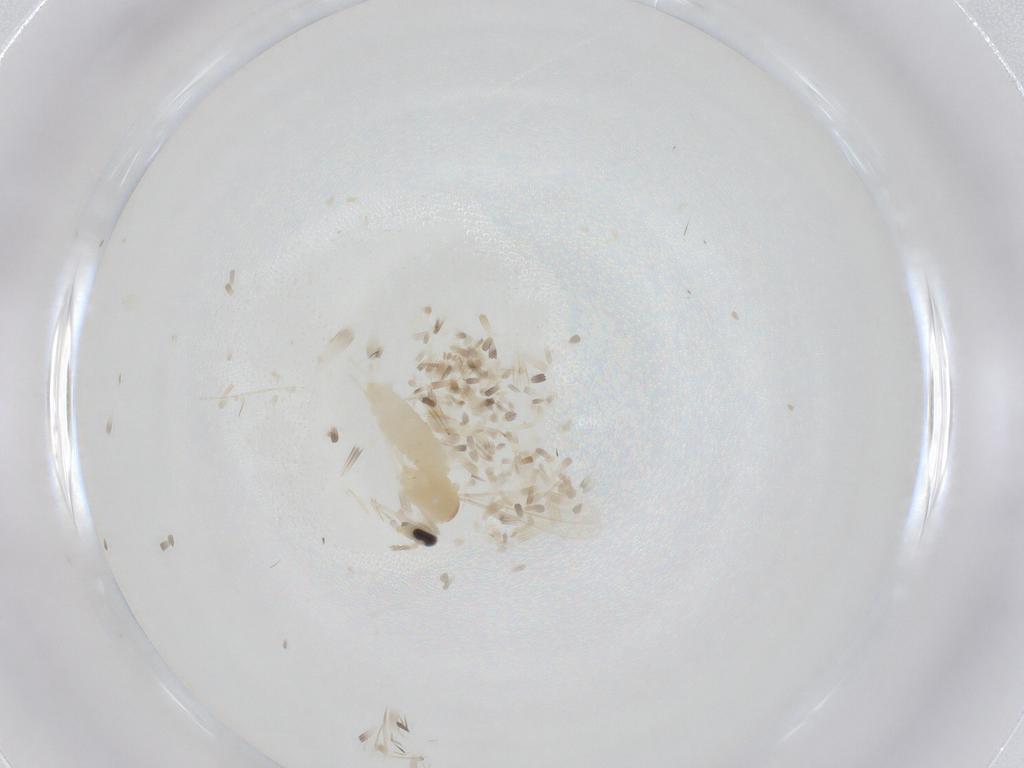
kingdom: Animalia
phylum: Arthropoda
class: Insecta
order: Diptera
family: Cecidomyiidae
